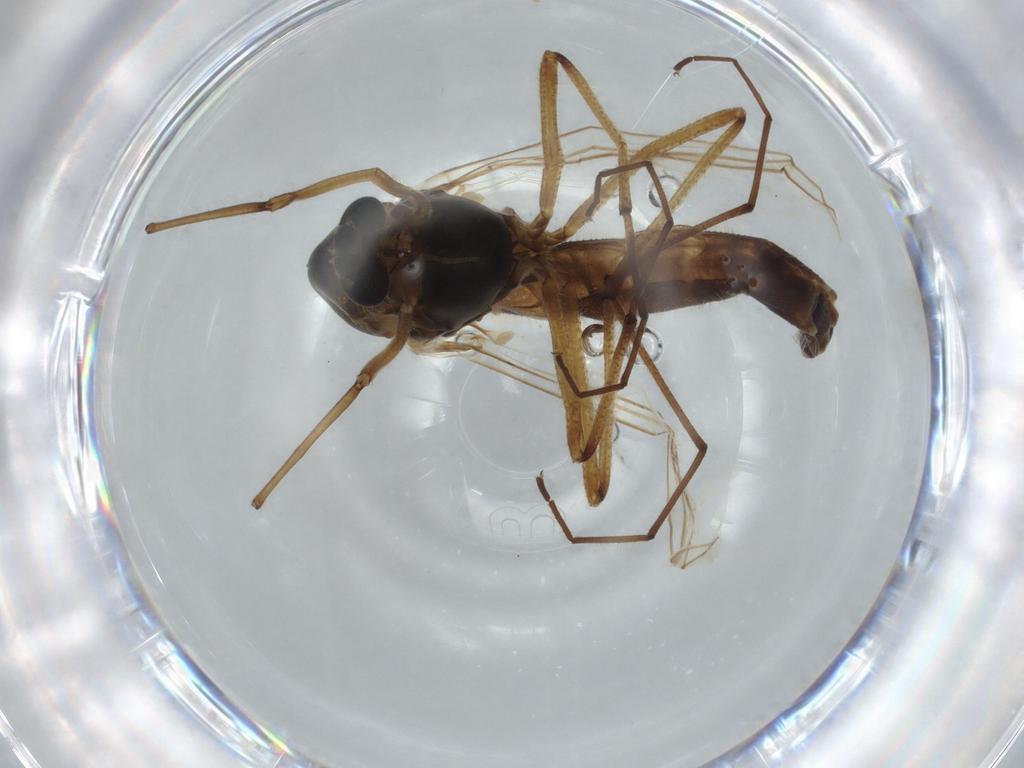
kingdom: Animalia
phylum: Arthropoda
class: Insecta
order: Diptera
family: Chironomidae
